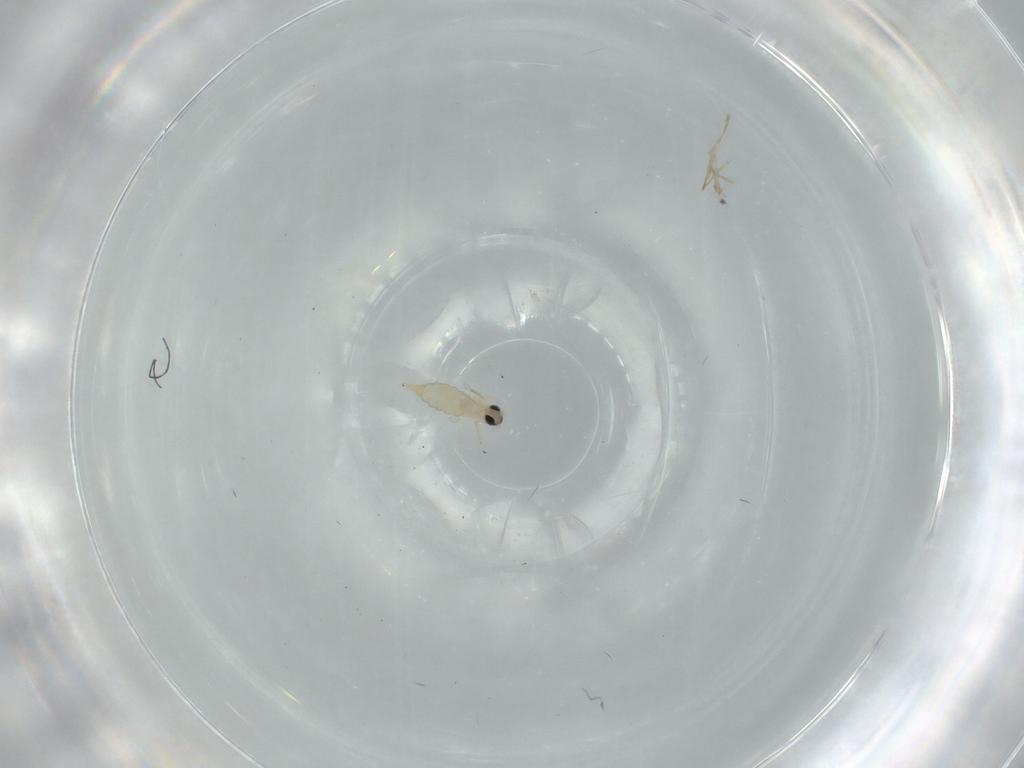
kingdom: Animalia
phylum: Arthropoda
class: Insecta
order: Diptera
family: Cecidomyiidae
